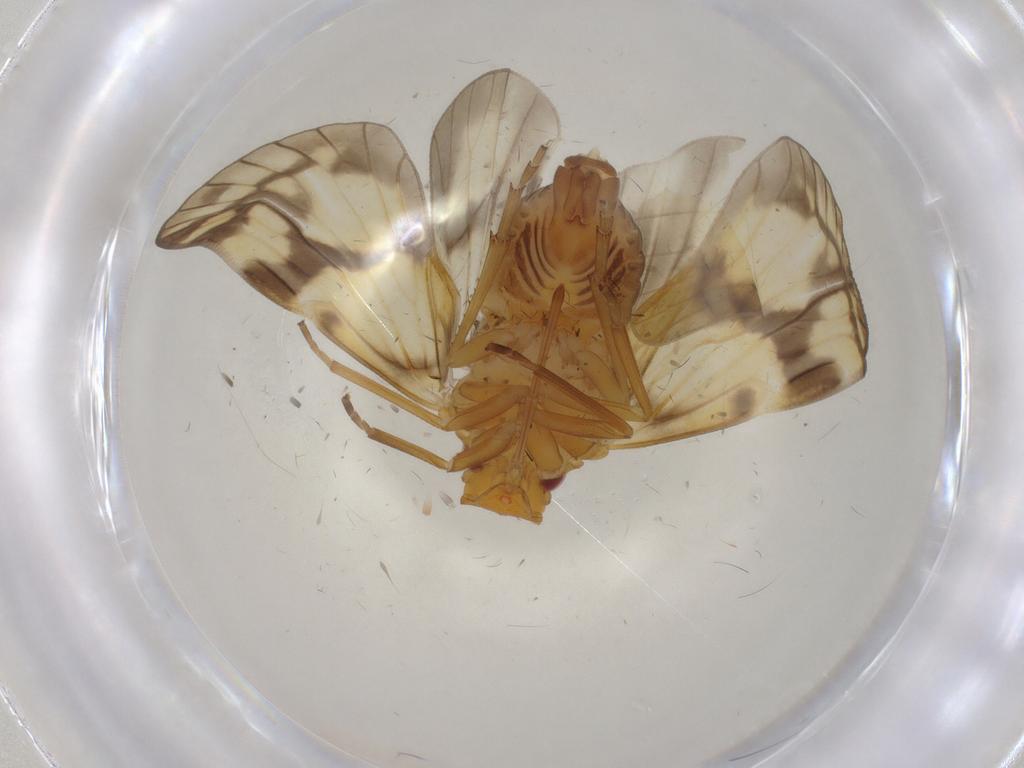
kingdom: Animalia
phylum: Arthropoda
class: Insecta
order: Hemiptera
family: Cixiidae
